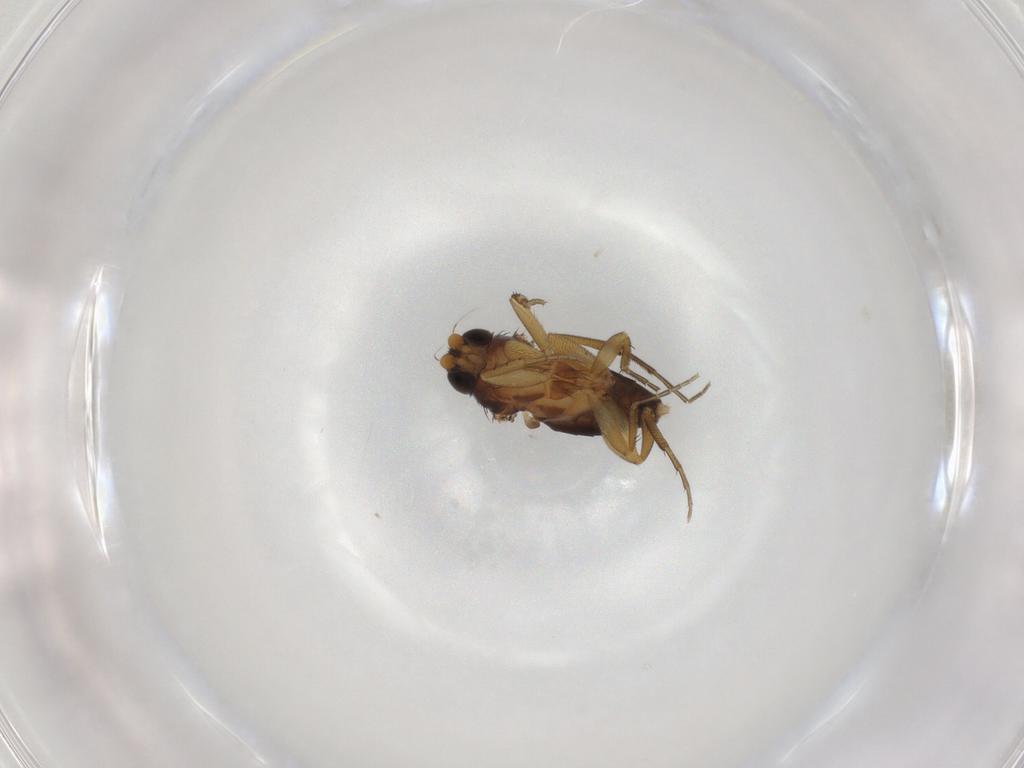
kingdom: Animalia
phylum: Arthropoda
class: Insecta
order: Diptera
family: Phoridae
